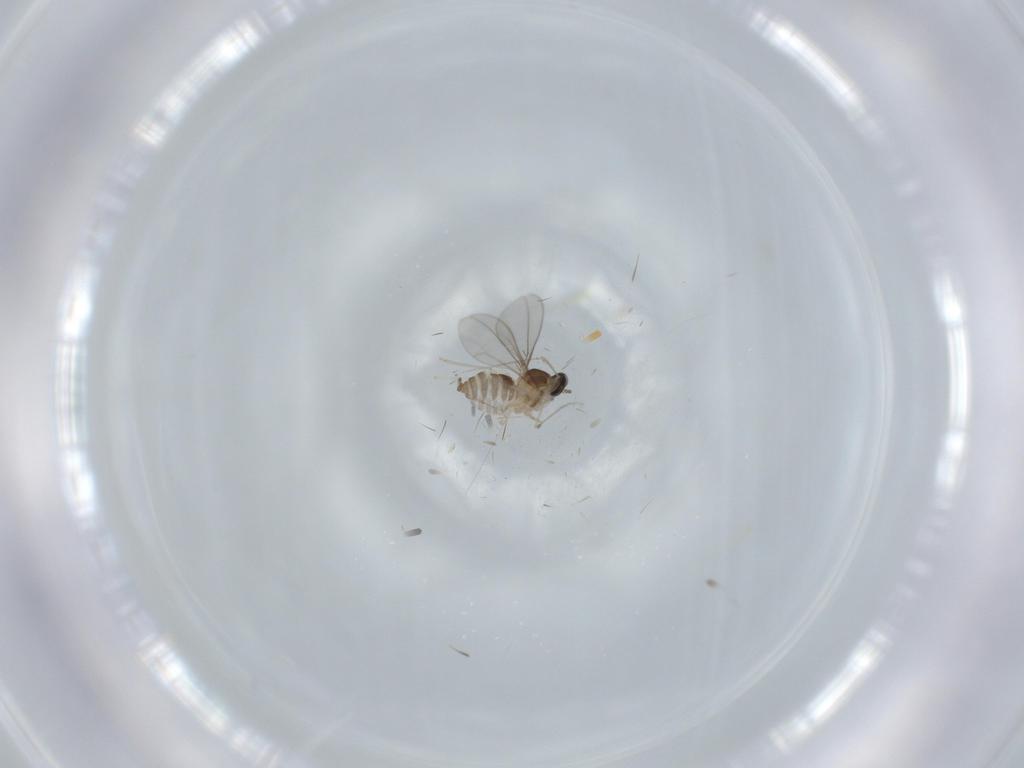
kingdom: Animalia
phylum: Arthropoda
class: Insecta
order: Diptera
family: Cecidomyiidae
